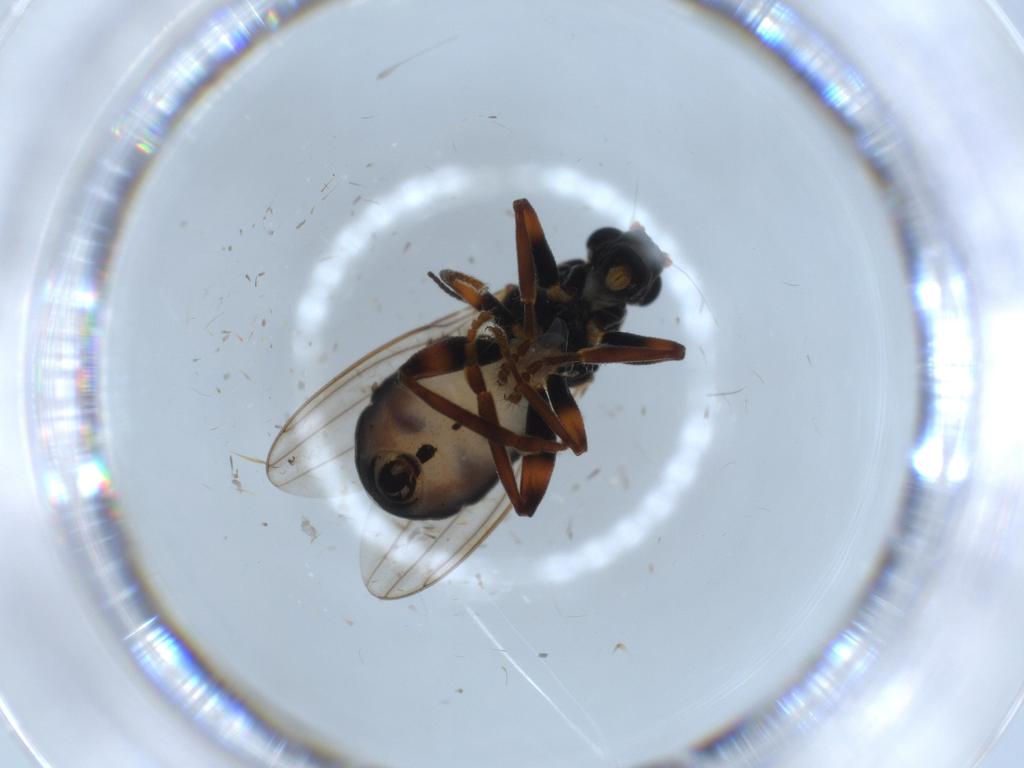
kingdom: Animalia
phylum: Arthropoda
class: Insecta
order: Diptera
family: Cecidomyiidae
